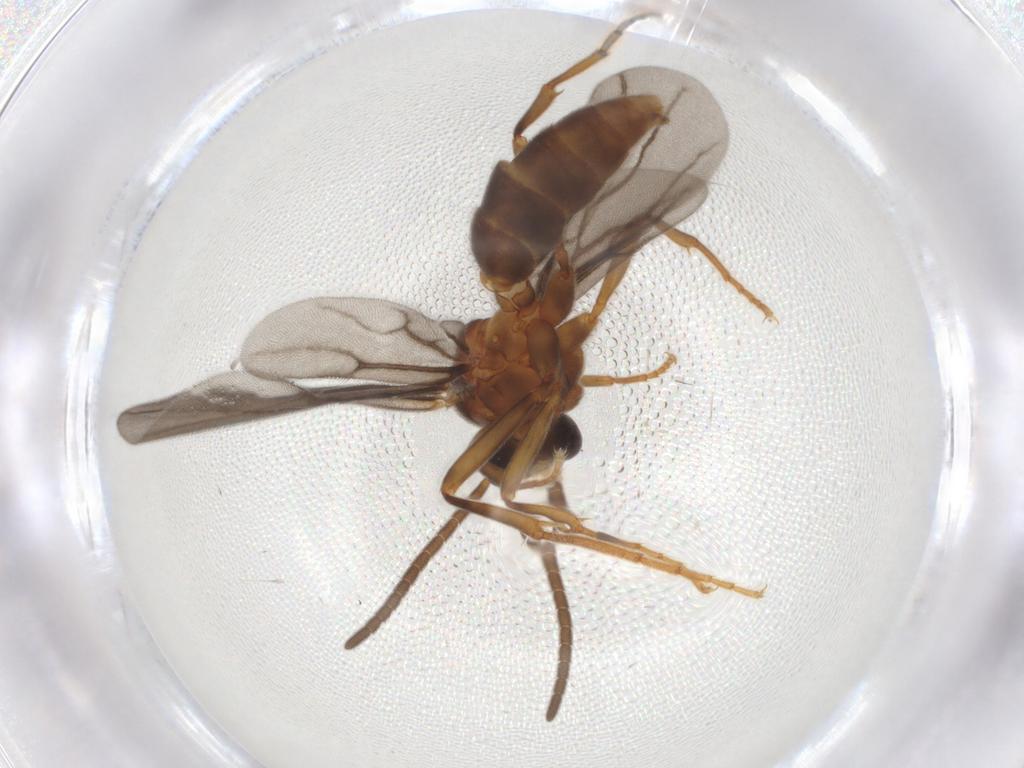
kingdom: Animalia
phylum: Arthropoda
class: Insecta
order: Hymenoptera
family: Formicidae
